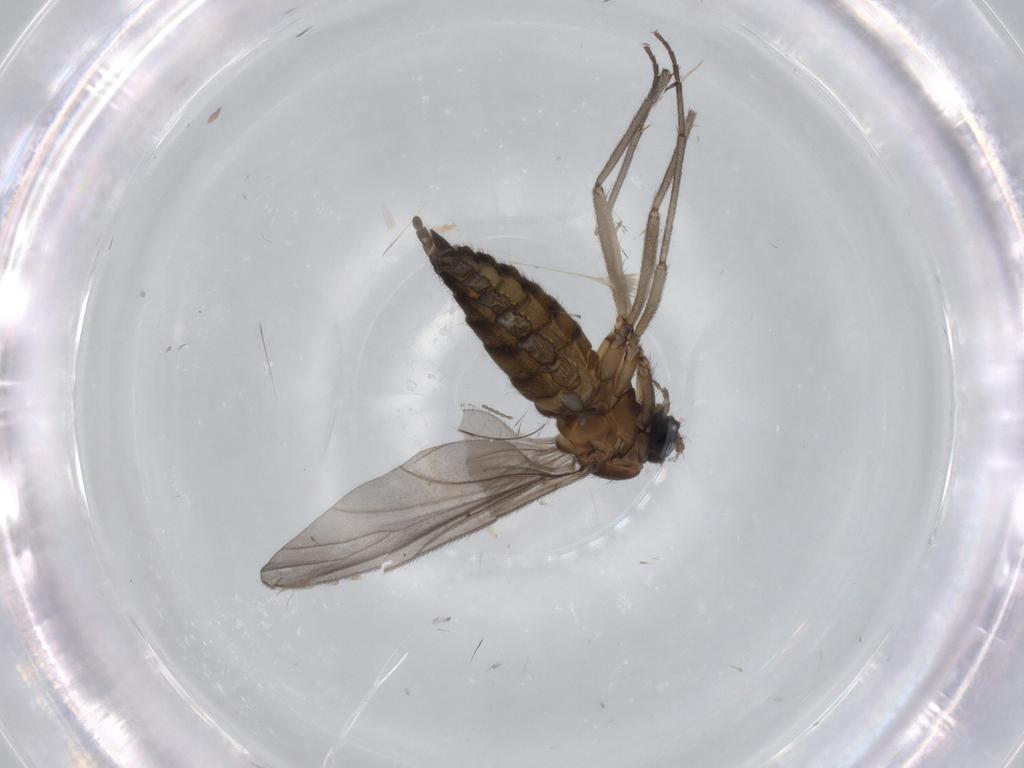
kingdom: Animalia
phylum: Arthropoda
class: Insecta
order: Diptera
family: Sciaridae
